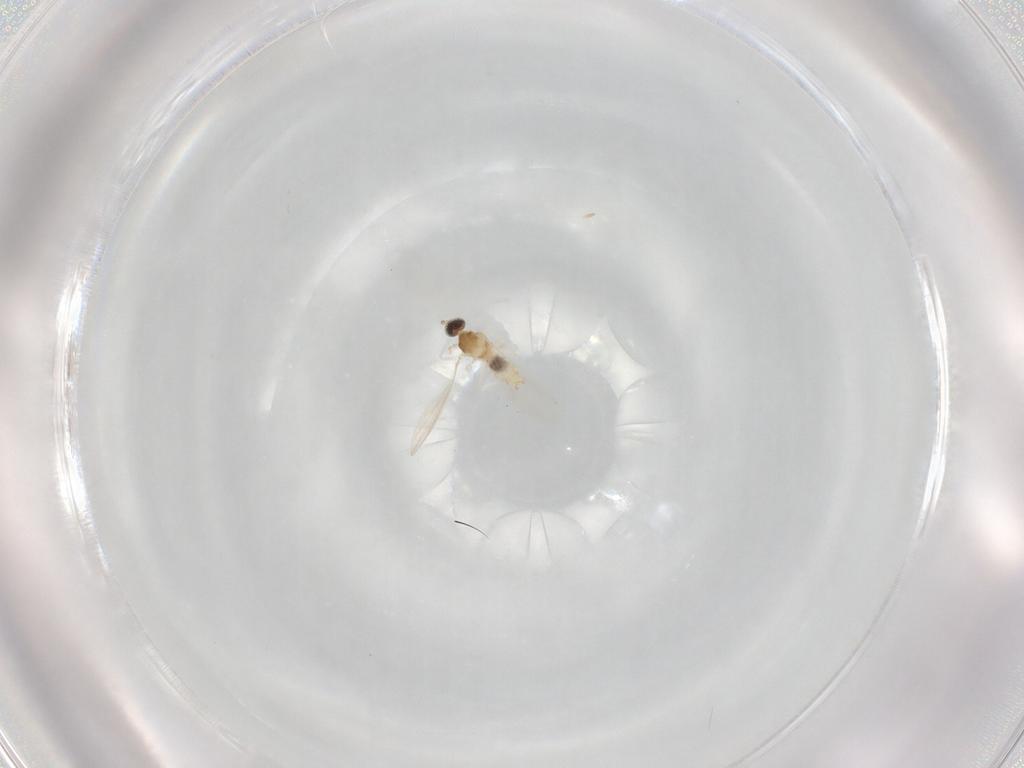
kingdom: Animalia
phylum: Arthropoda
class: Insecta
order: Diptera
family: Cecidomyiidae
